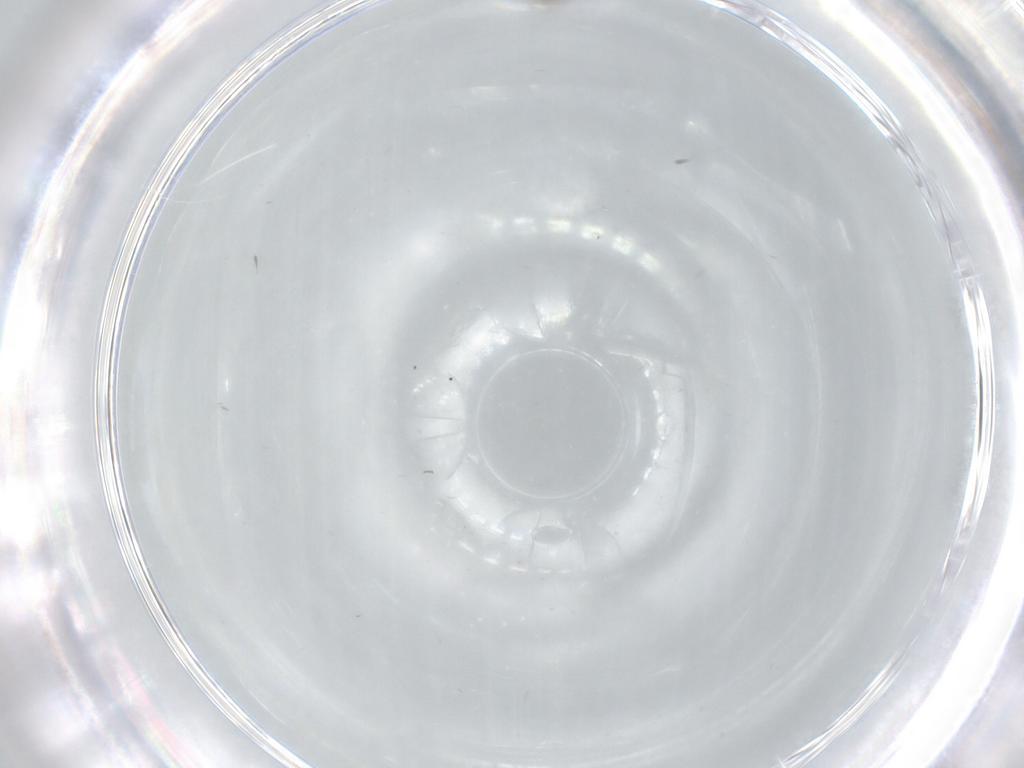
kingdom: Animalia
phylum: Arthropoda
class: Insecta
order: Diptera
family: Chironomidae
